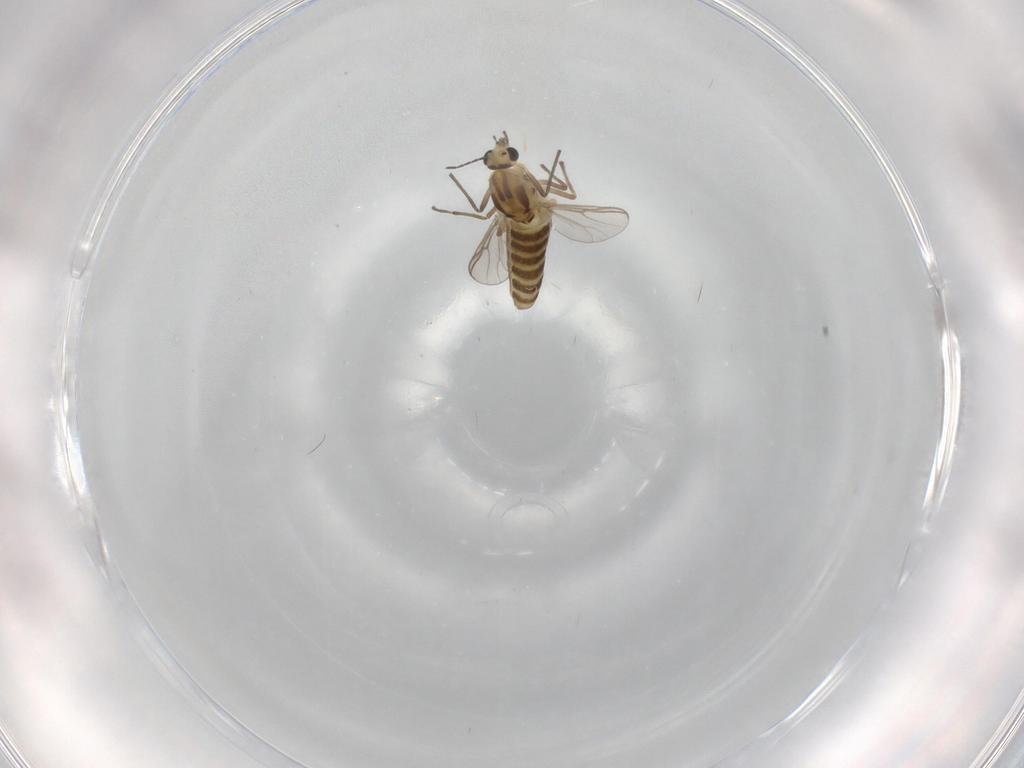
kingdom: Animalia
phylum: Arthropoda
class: Insecta
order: Diptera
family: Chironomidae
